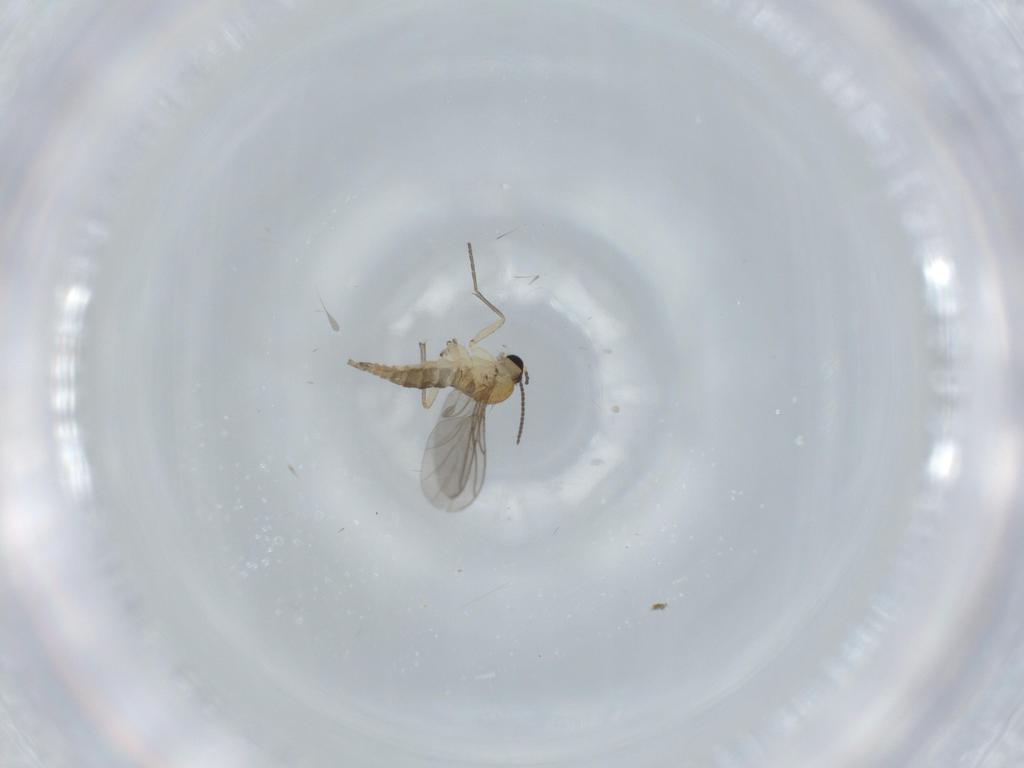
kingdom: Animalia
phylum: Arthropoda
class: Insecta
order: Diptera
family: Sciaridae
